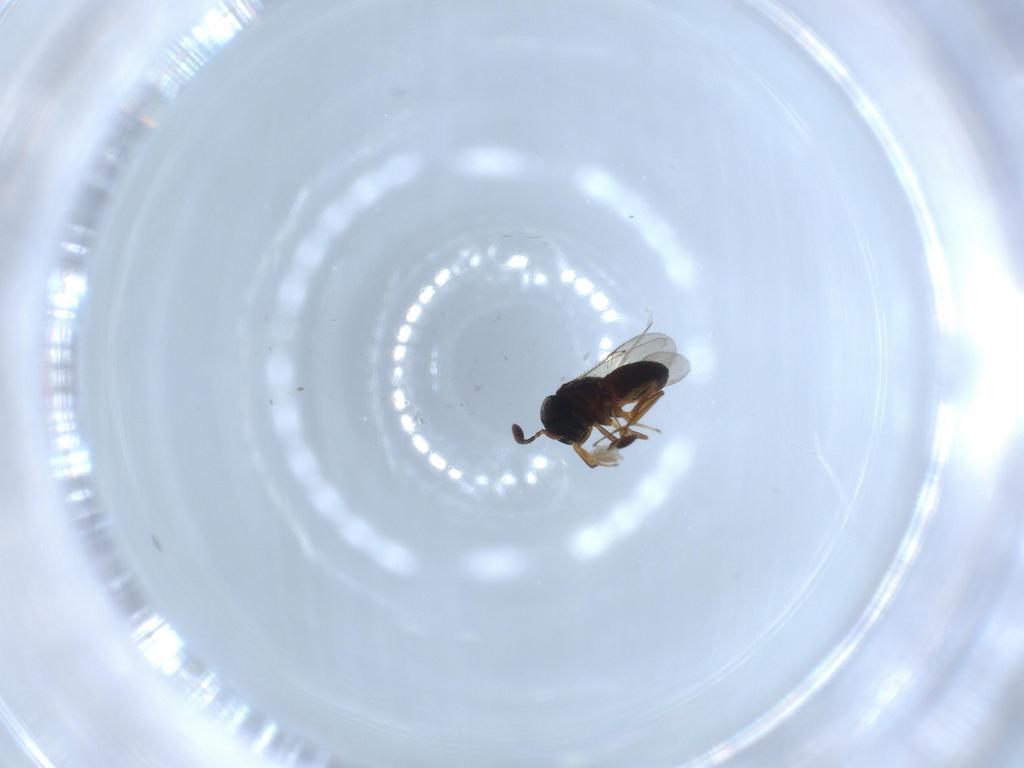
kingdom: Animalia
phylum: Arthropoda
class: Insecta
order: Hymenoptera
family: Scelionidae
